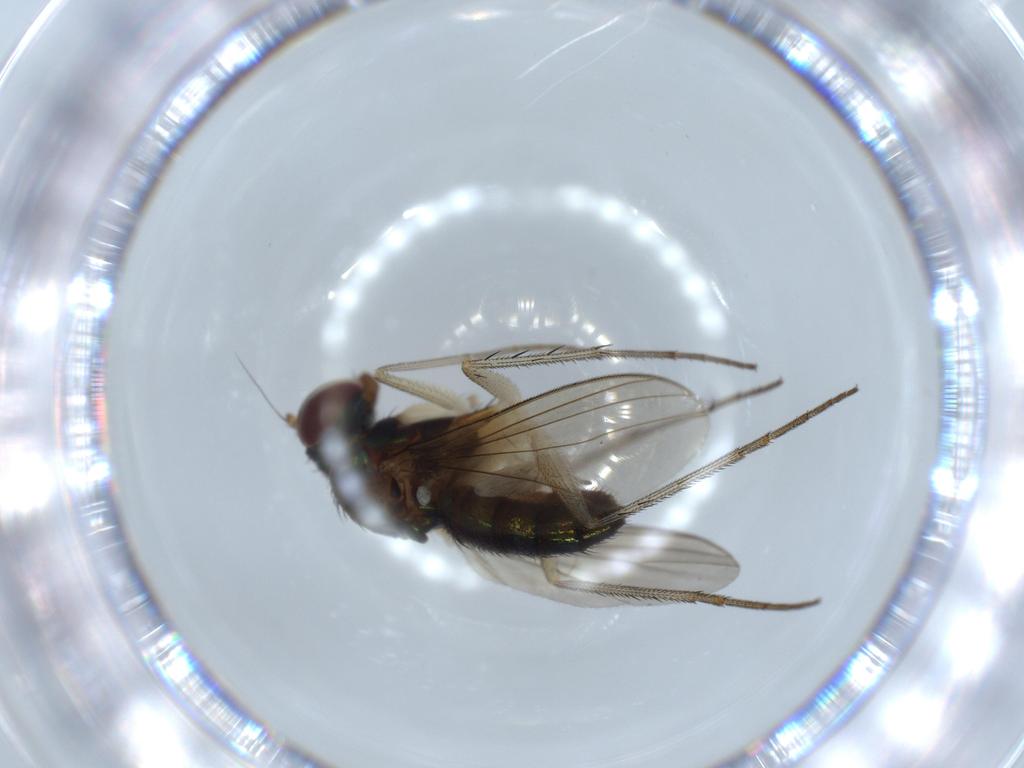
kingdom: Animalia
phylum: Arthropoda
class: Insecta
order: Diptera
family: Dolichopodidae
